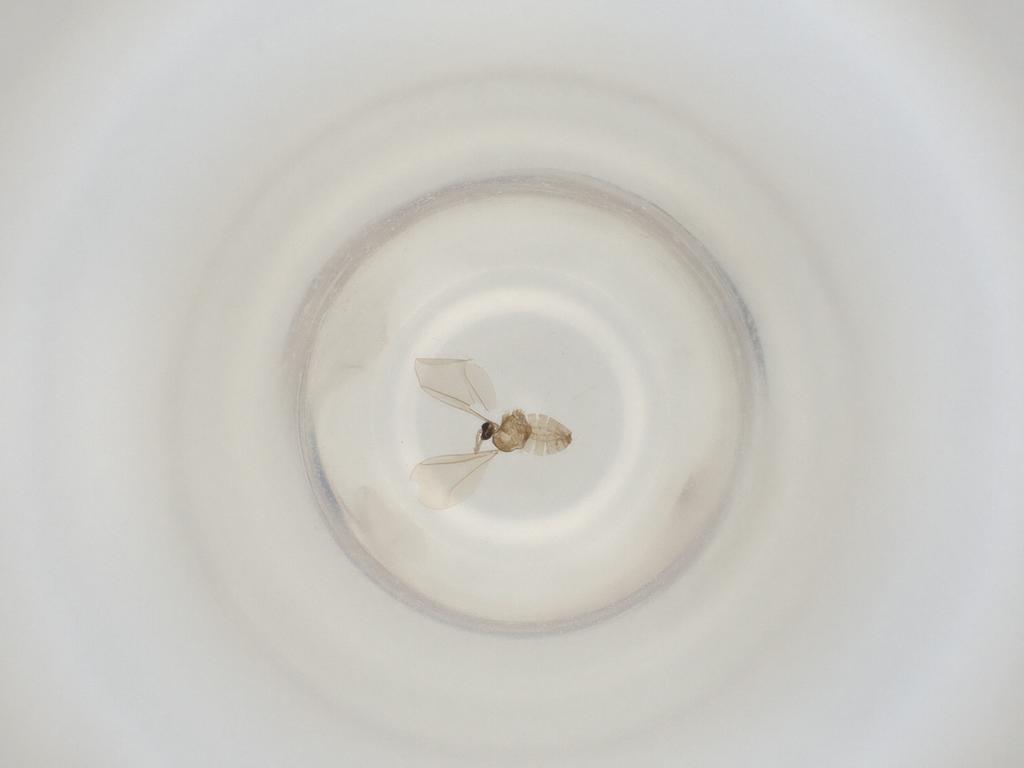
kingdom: Animalia
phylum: Arthropoda
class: Insecta
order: Diptera
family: Cecidomyiidae
